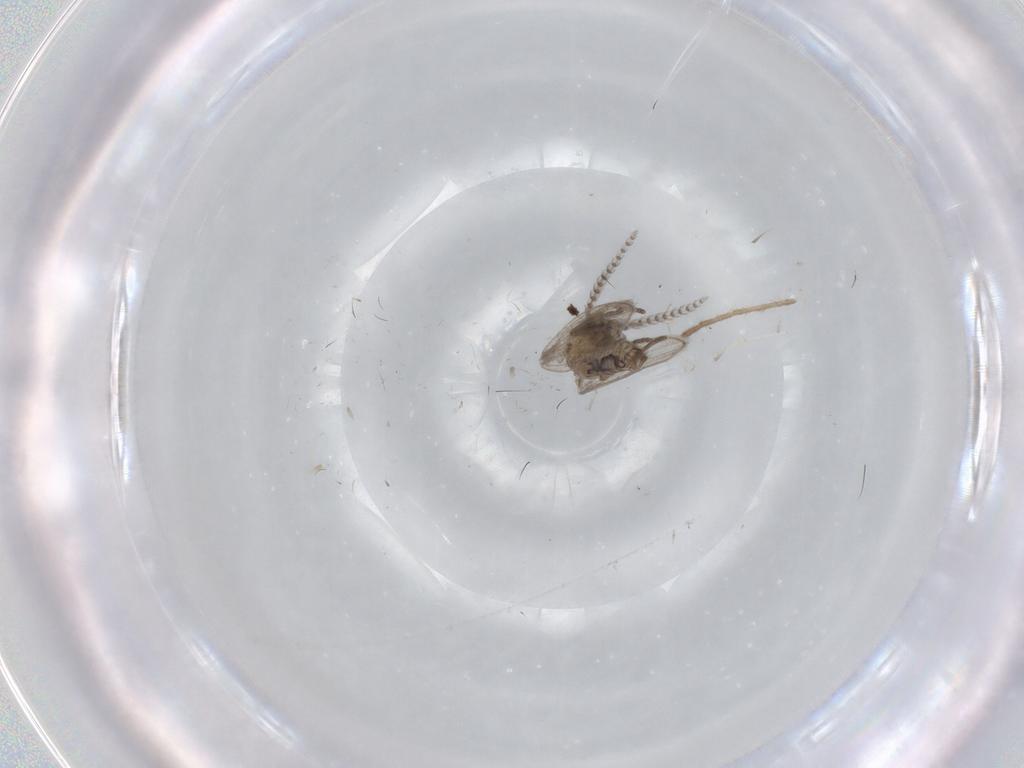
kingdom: Animalia
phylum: Arthropoda
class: Insecta
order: Diptera
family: Psychodidae
